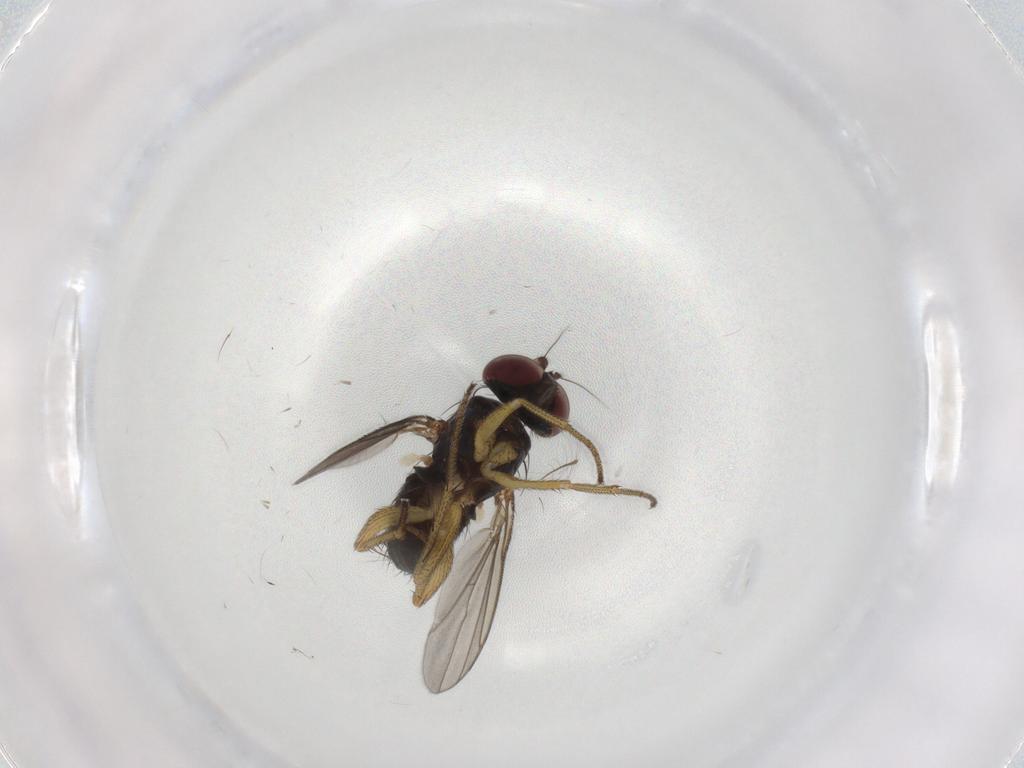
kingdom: Animalia
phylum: Arthropoda
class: Insecta
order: Diptera
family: Dolichopodidae
